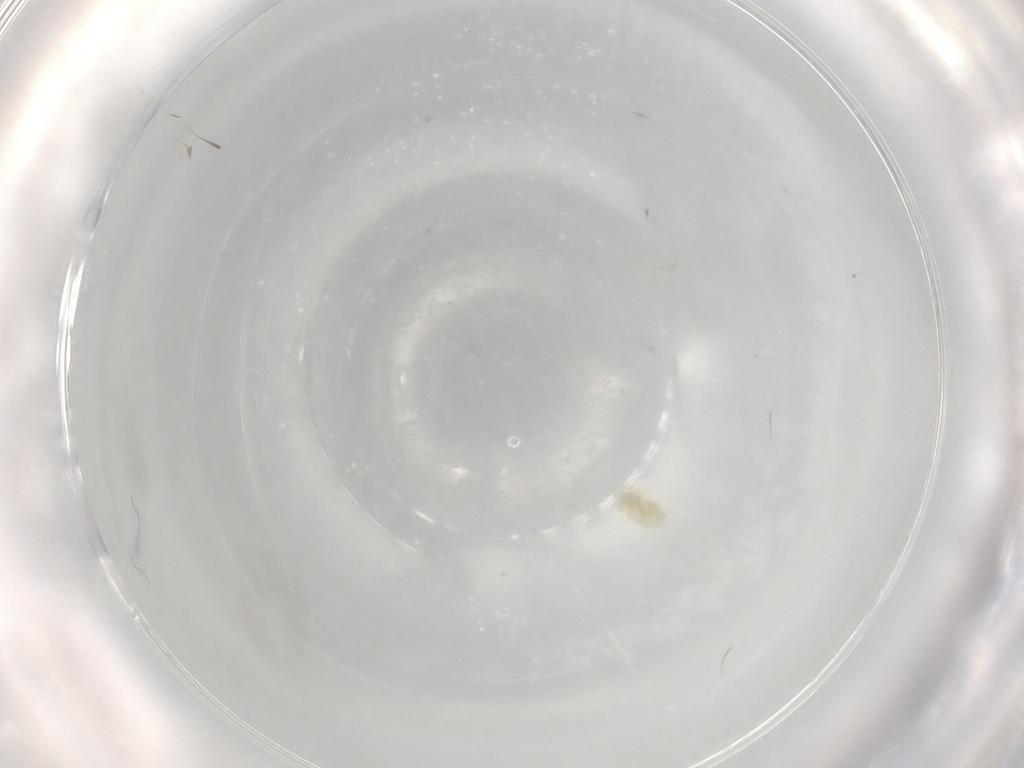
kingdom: Animalia
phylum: Arthropoda
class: Arachnida
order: Trombidiformes
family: Eupodidae
